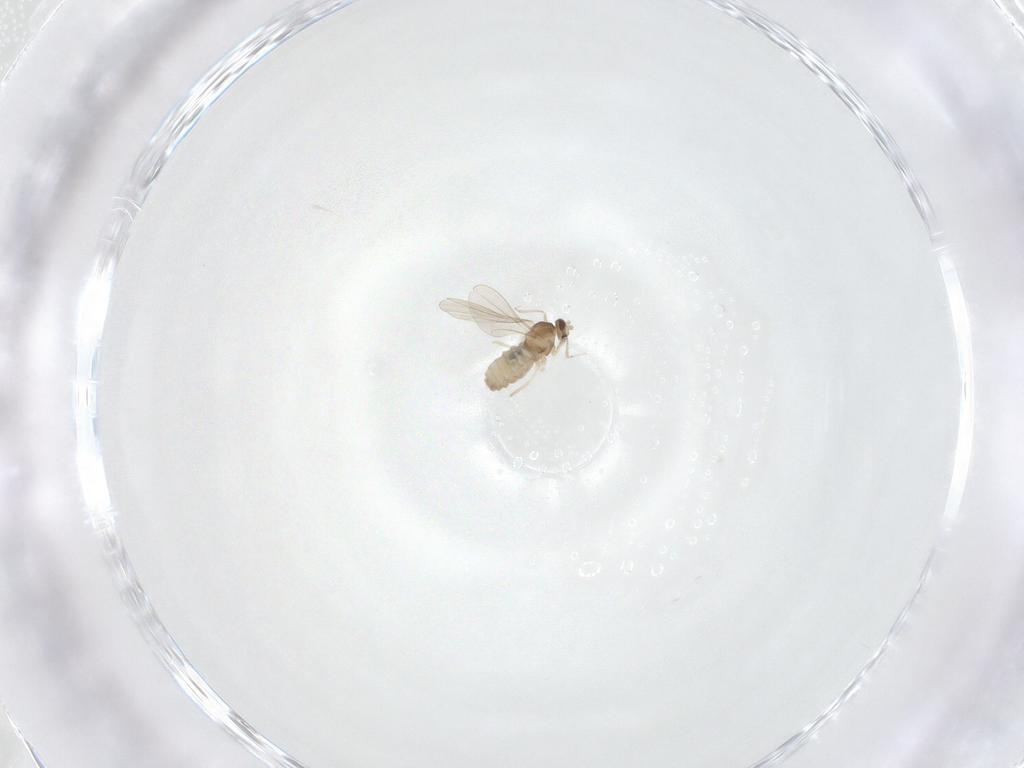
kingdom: Animalia
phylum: Arthropoda
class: Insecta
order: Diptera
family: Cecidomyiidae
